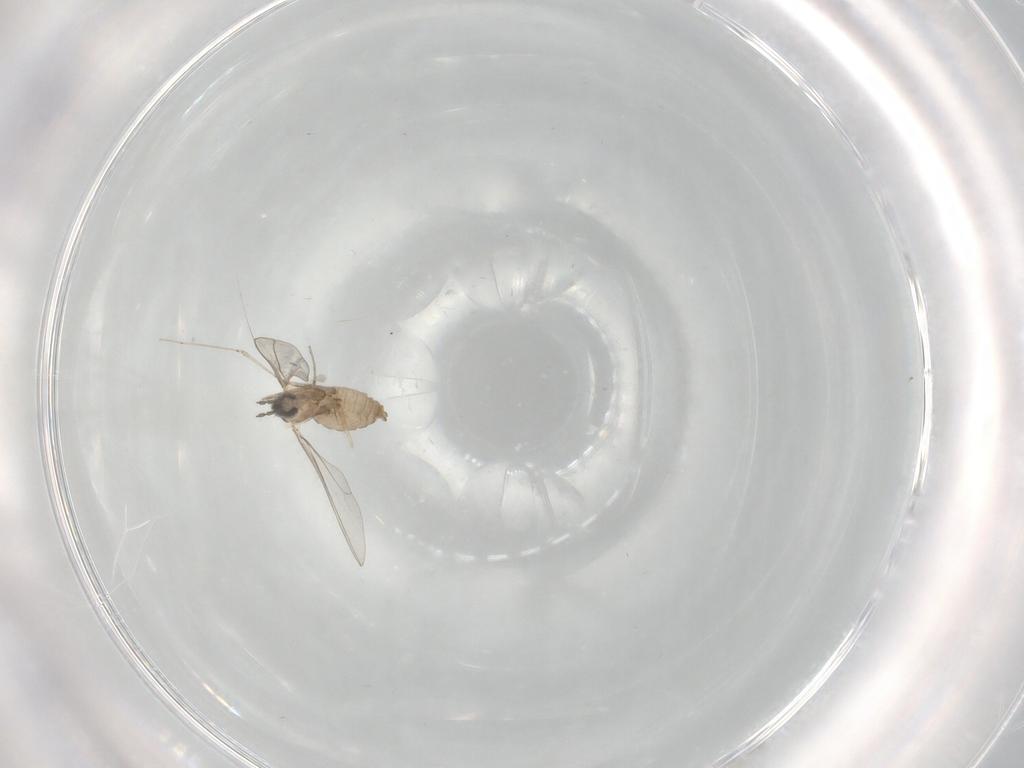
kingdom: Animalia
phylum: Arthropoda
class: Insecta
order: Diptera
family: Cecidomyiidae
